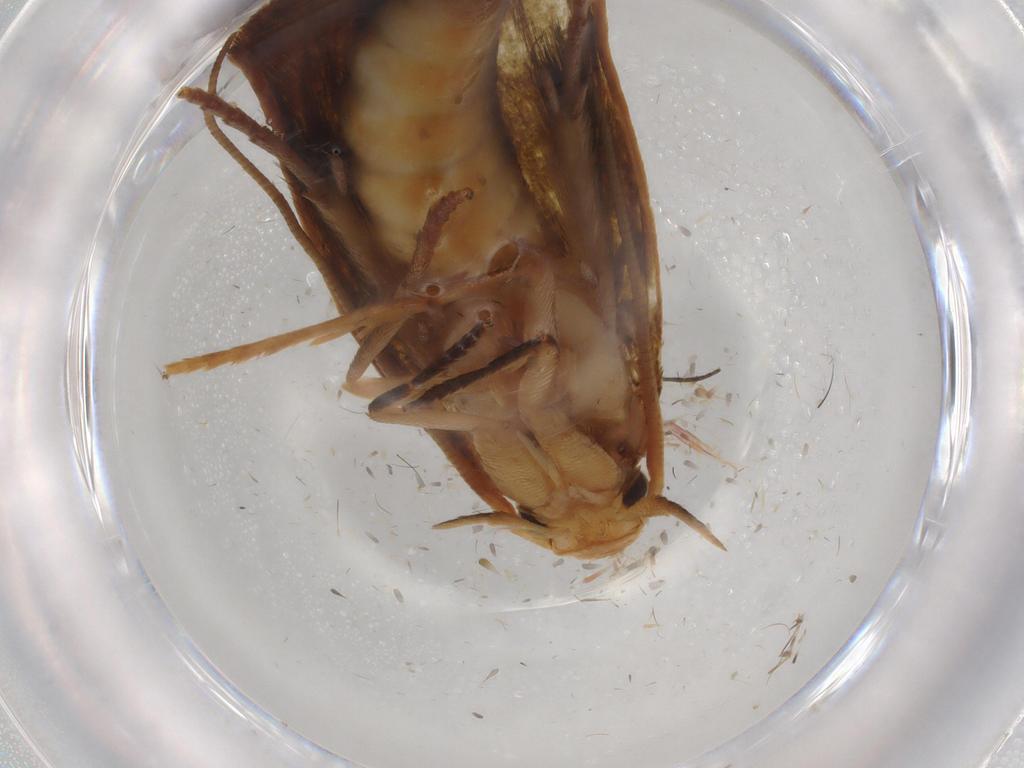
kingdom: Animalia
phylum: Arthropoda
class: Insecta
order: Lepidoptera
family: Tineidae
